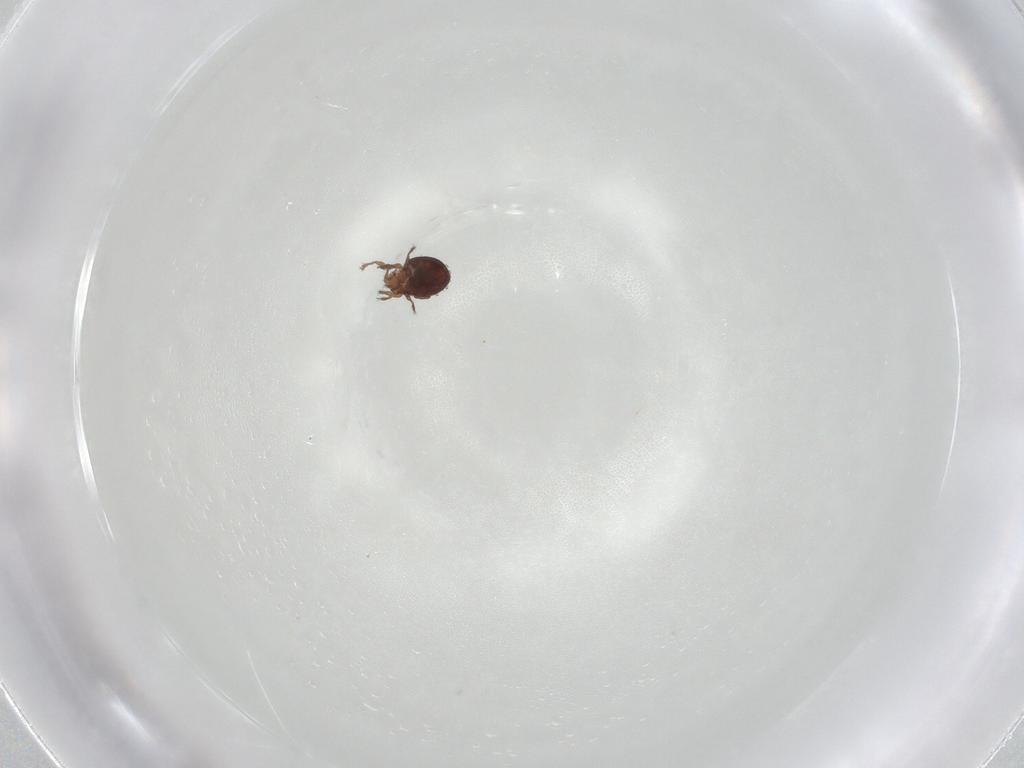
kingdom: Animalia
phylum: Arthropoda
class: Arachnida
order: Sarcoptiformes
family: Oribatulidae
